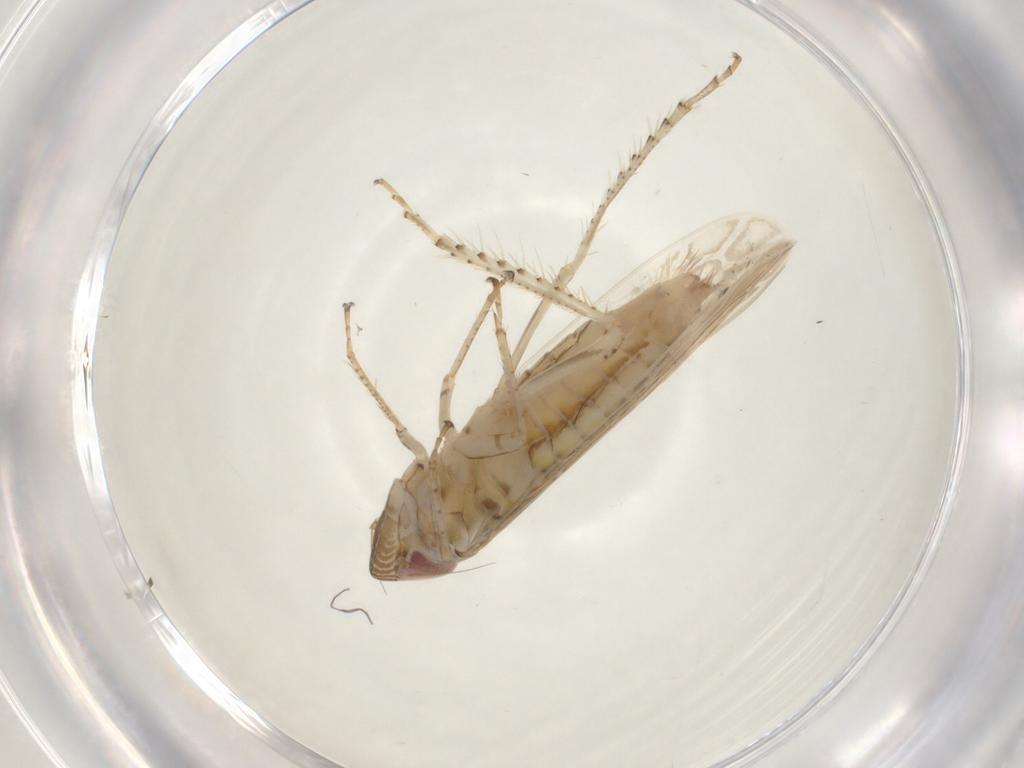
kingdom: Animalia
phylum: Arthropoda
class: Insecta
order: Hemiptera
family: Cicadellidae
